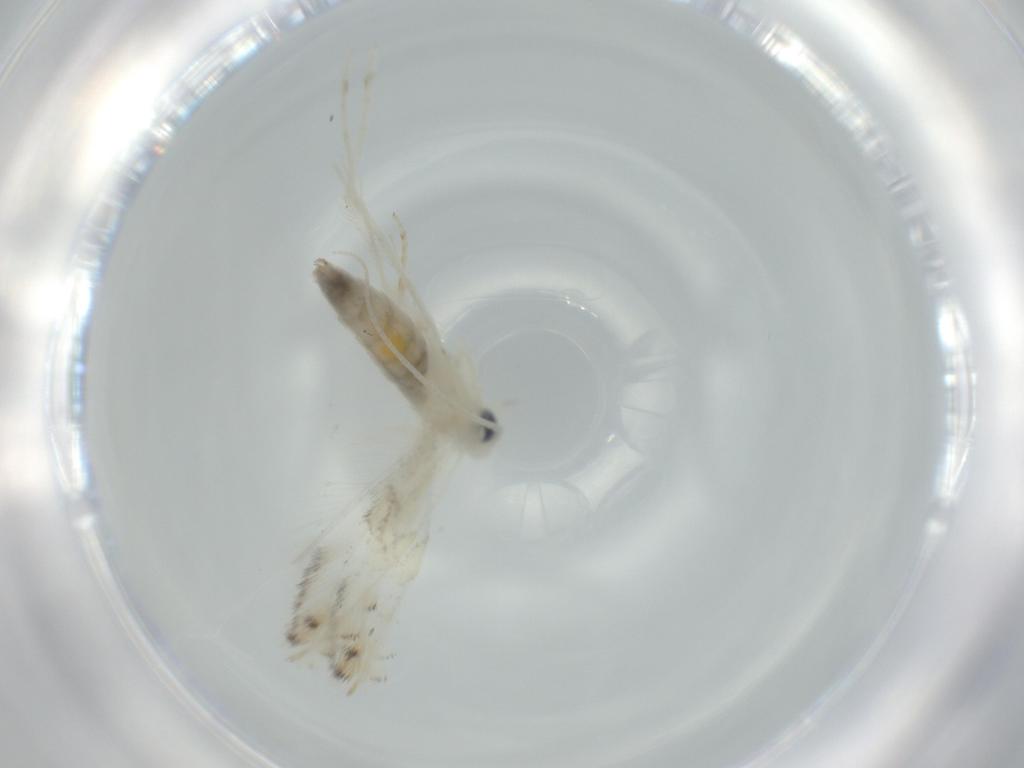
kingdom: Animalia
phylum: Arthropoda
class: Insecta
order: Lepidoptera
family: Gracillariidae
